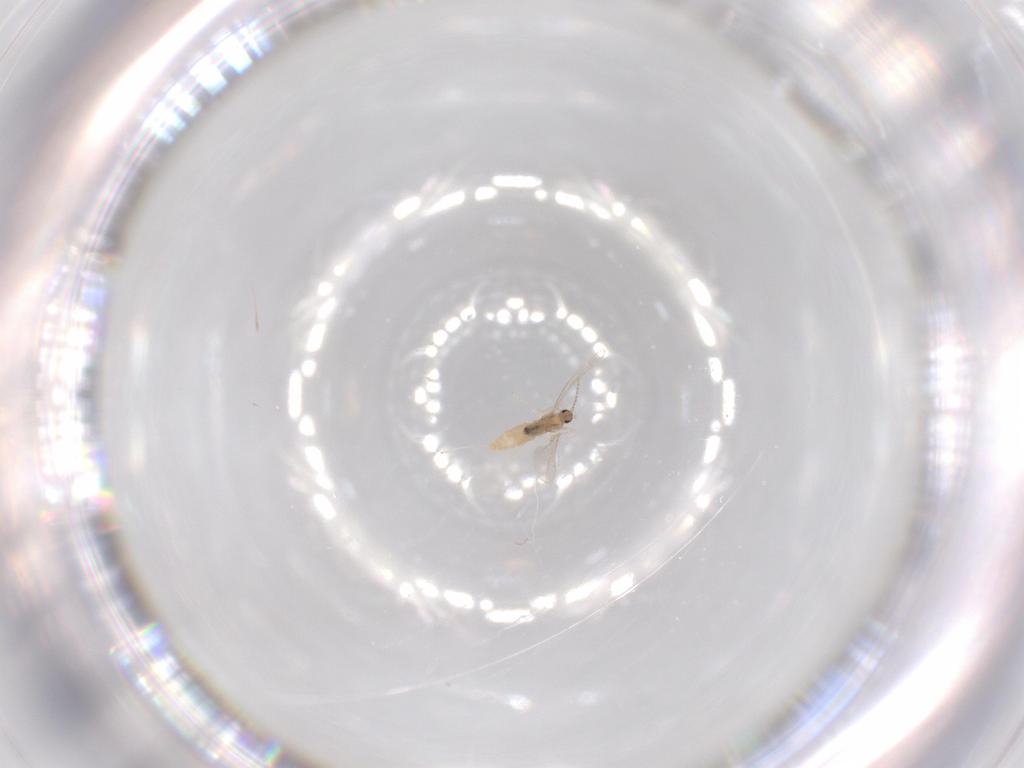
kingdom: Animalia
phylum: Arthropoda
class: Insecta
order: Diptera
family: Cecidomyiidae
